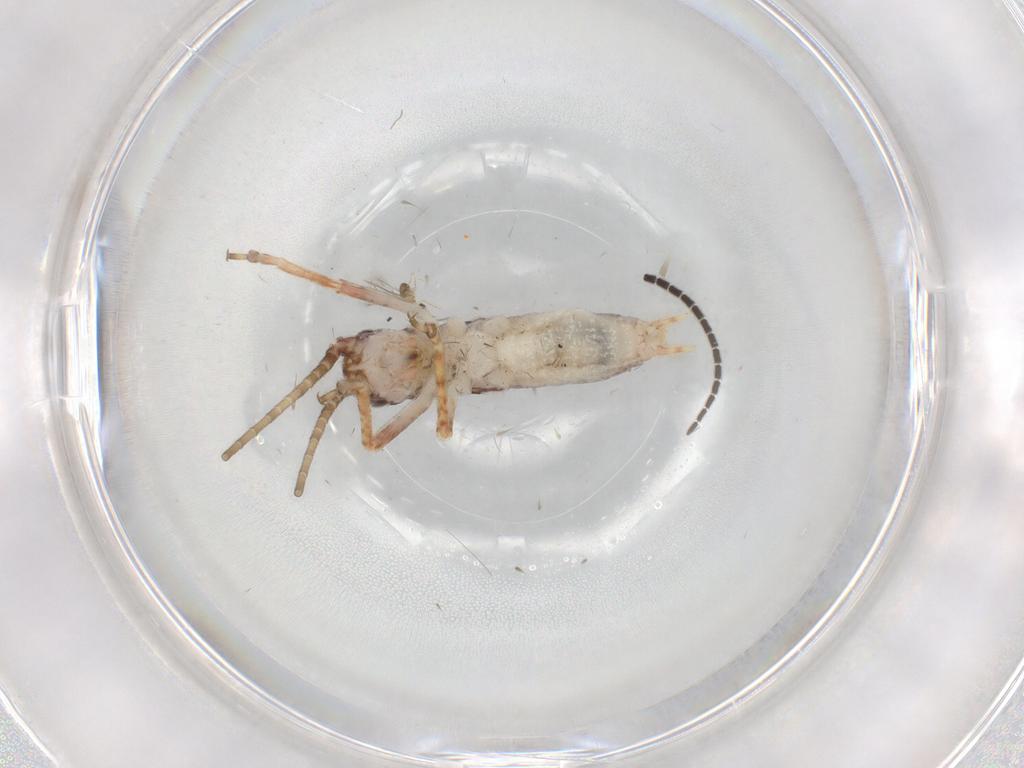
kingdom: Animalia
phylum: Arthropoda
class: Insecta
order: Orthoptera
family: Gryllidae
